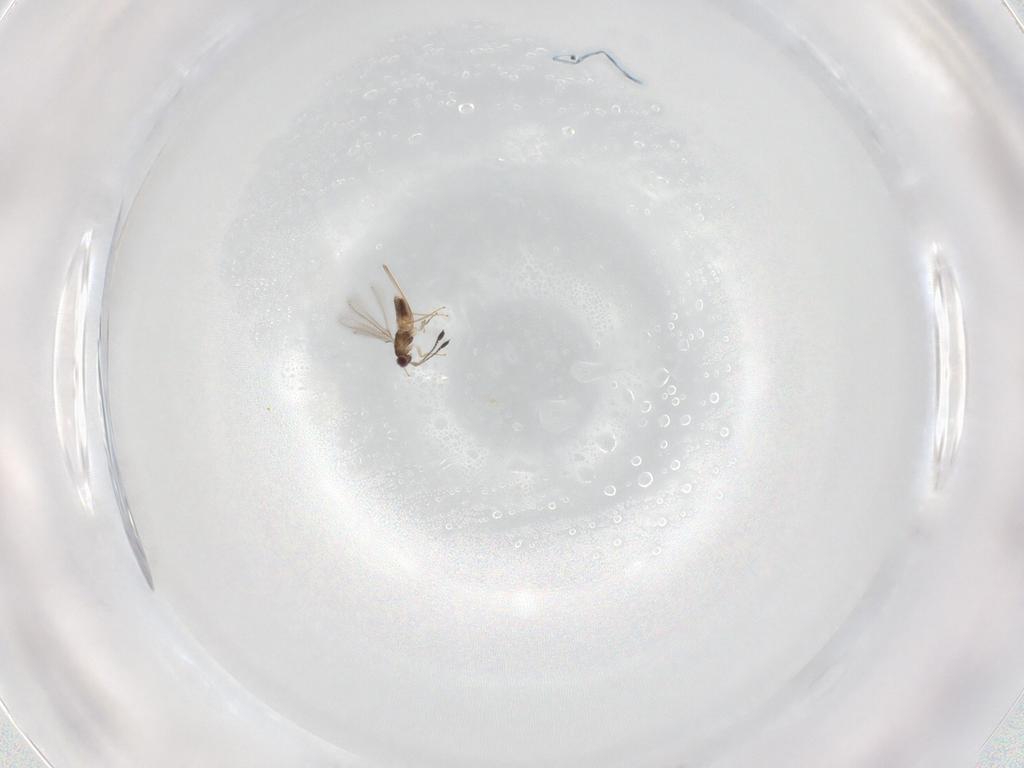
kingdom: Animalia
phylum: Arthropoda
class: Insecta
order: Hymenoptera
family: Mymaridae
